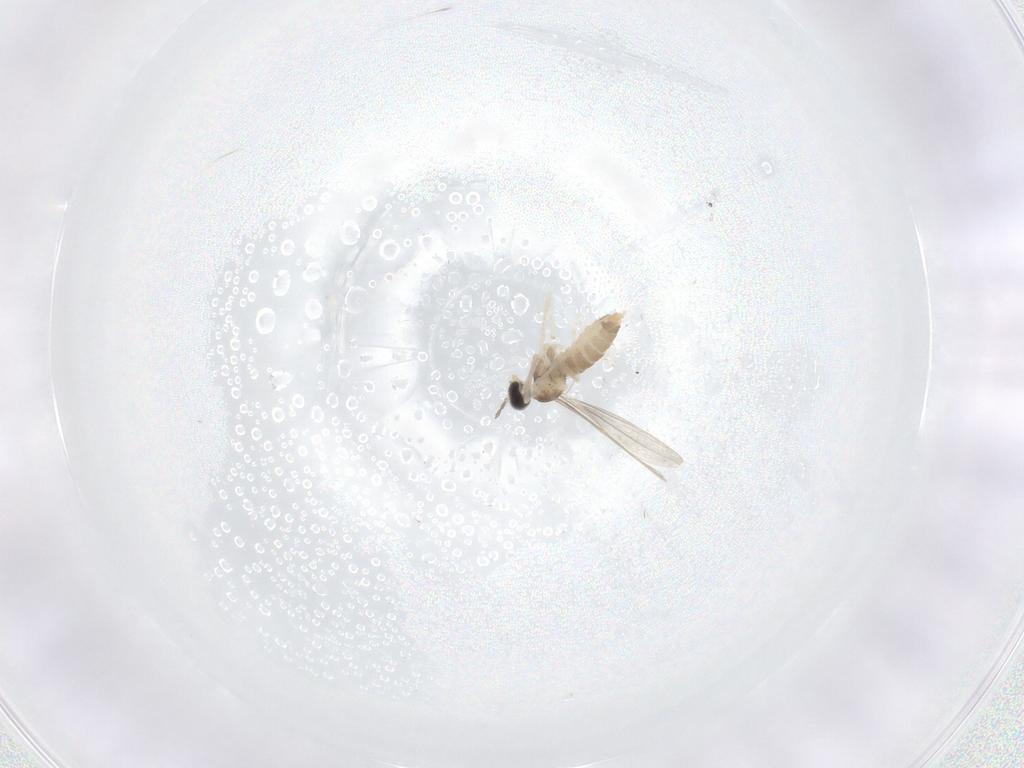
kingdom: Animalia
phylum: Arthropoda
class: Insecta
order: Diptera
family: Cecidomyiidae
